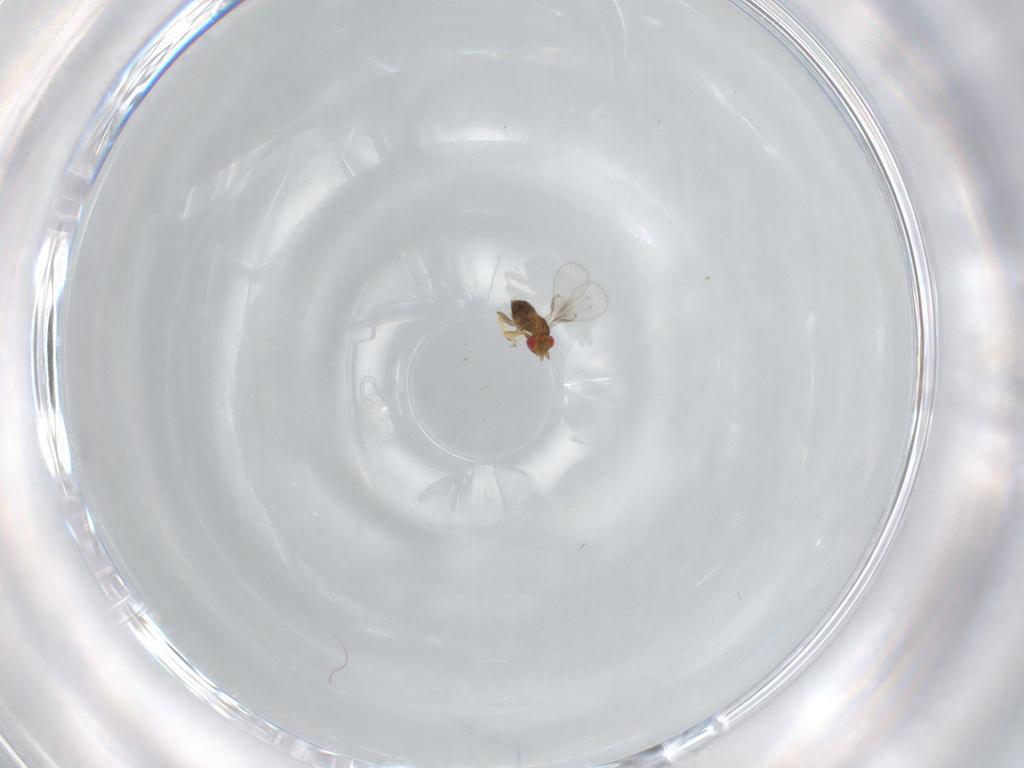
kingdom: Animalia
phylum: Arthropoda
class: Insecta
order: Hymenoptera
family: Trichogrammatidae
